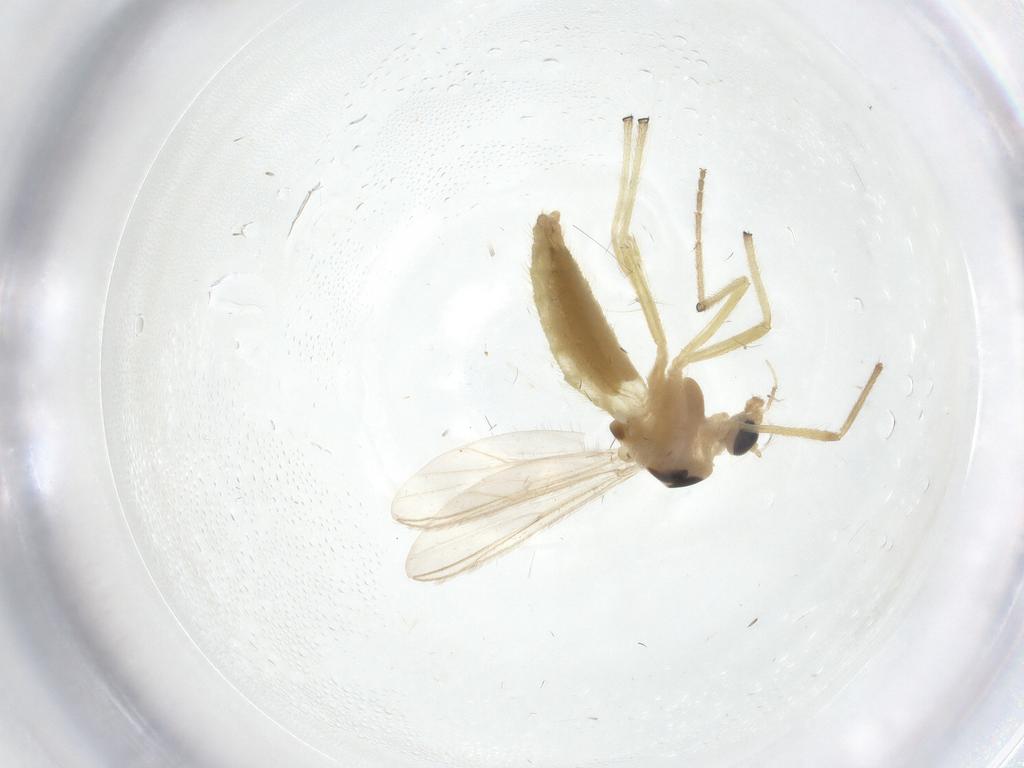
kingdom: Animalia
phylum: Arthropoda
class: Insecta
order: Diptera
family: Chironomidae
